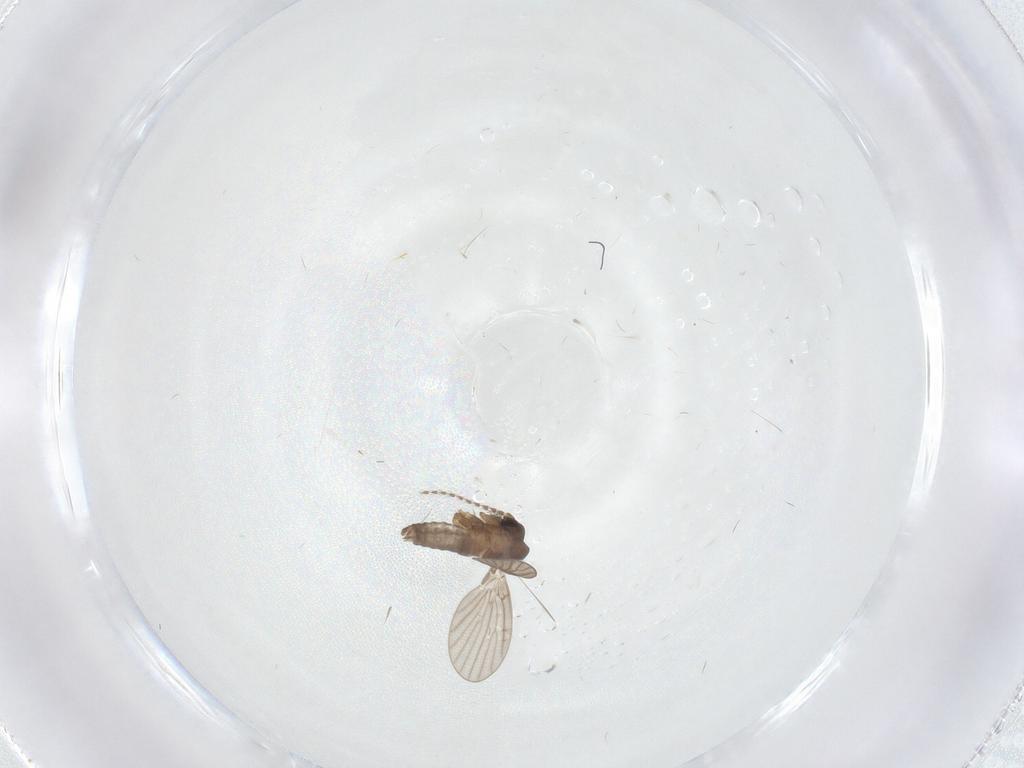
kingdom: Animalia
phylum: Arthropoda
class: Insecta
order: Diptera
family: Psychodidae
